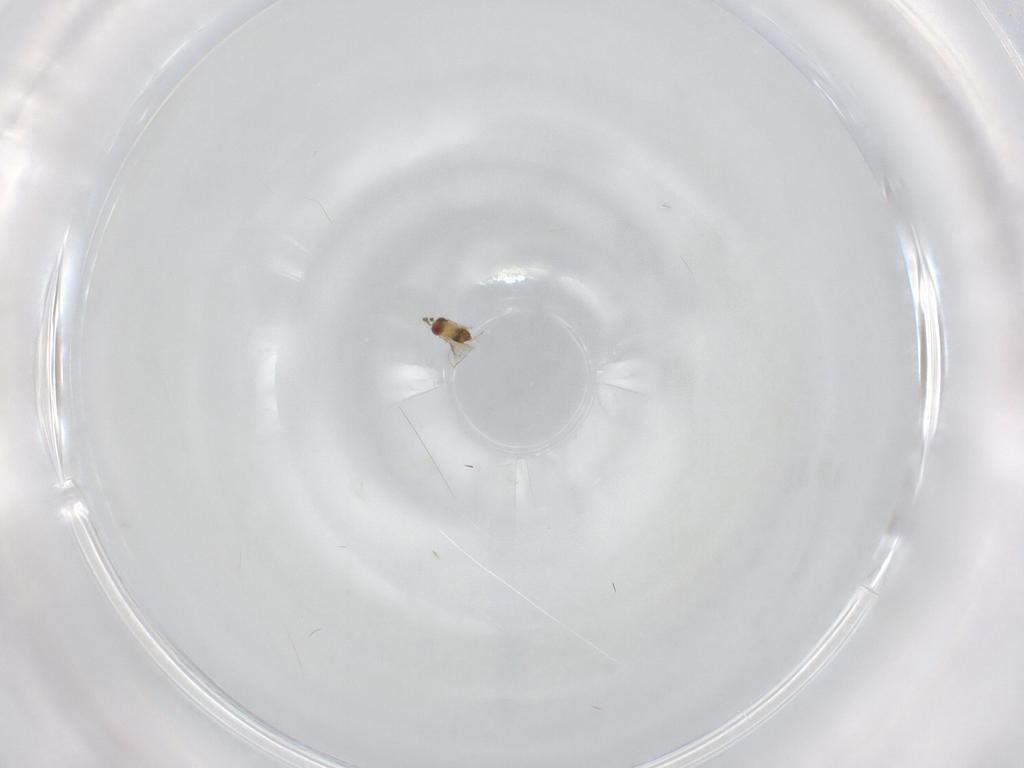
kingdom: Animalia
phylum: Arthropoda
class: Insecta
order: Hymenoptera
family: Trichogrammatidae
